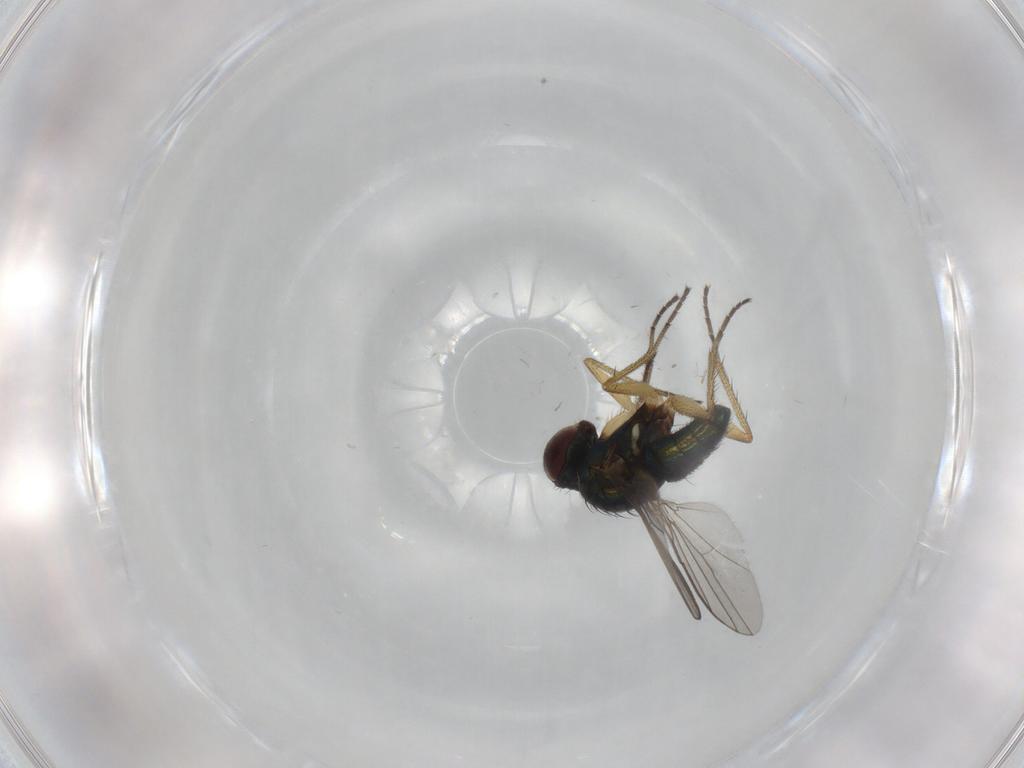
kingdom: Animalia
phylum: Arthropoda
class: Insecta
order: Diptera
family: Dolichopodidae
